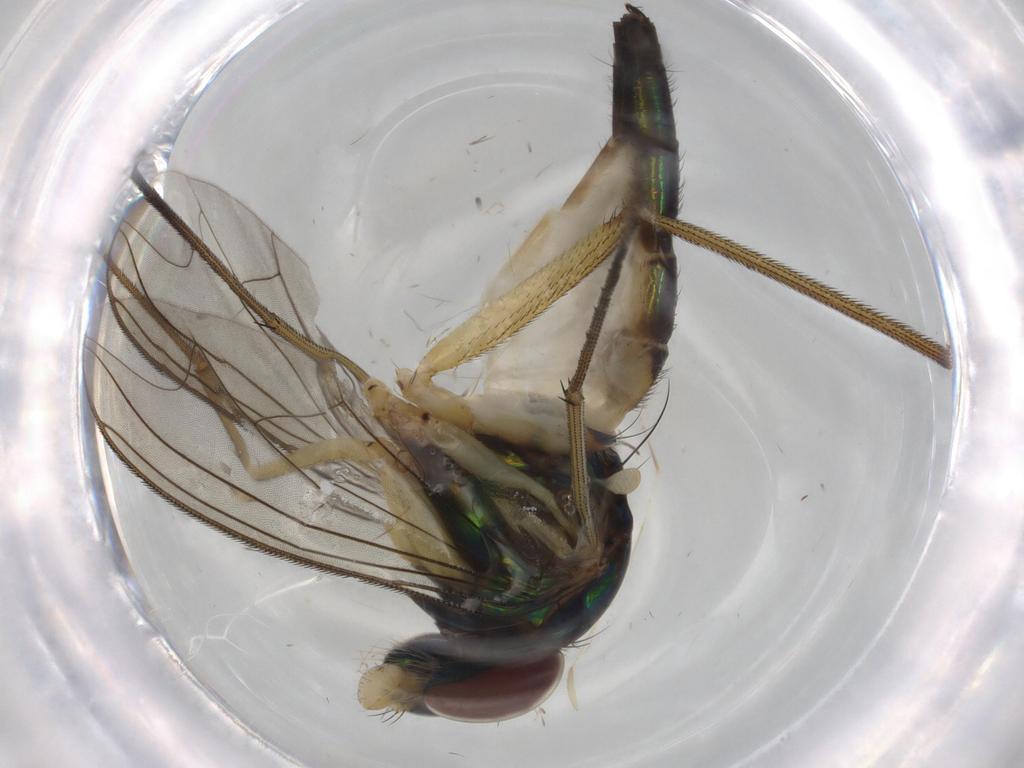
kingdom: Animalia
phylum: Arthropoda
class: Insecta
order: Diptera
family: Dolichopodidae
